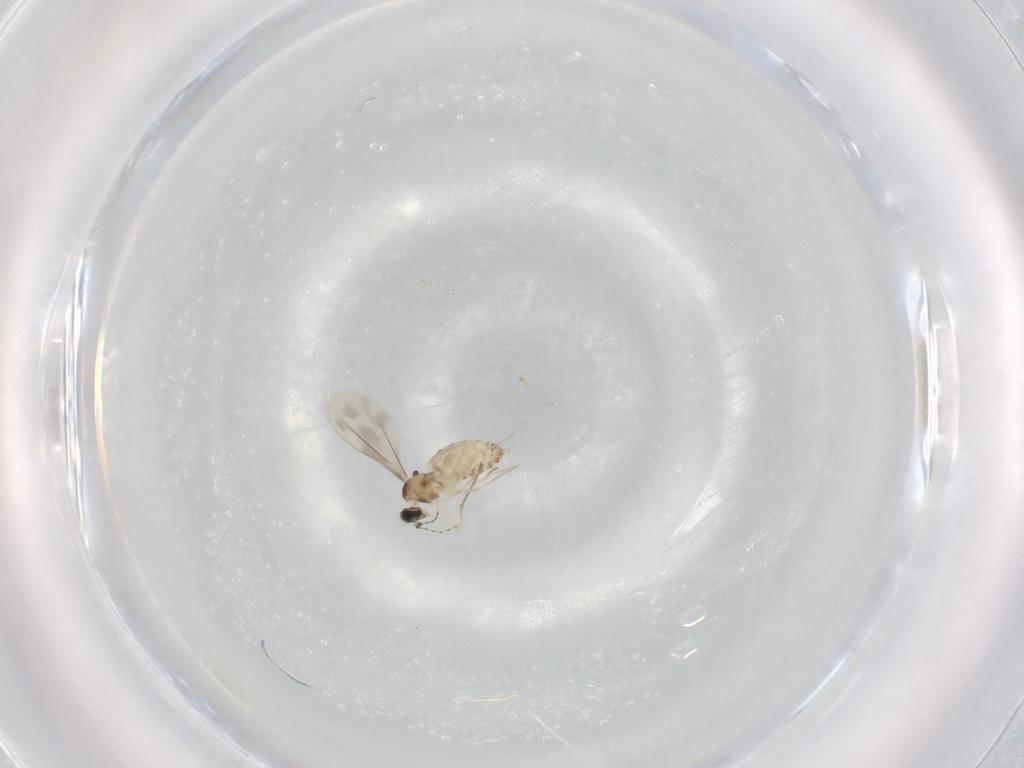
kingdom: Animalia
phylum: Arthropoda
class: Insecta
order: Diptera
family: Cecidomyiidae
